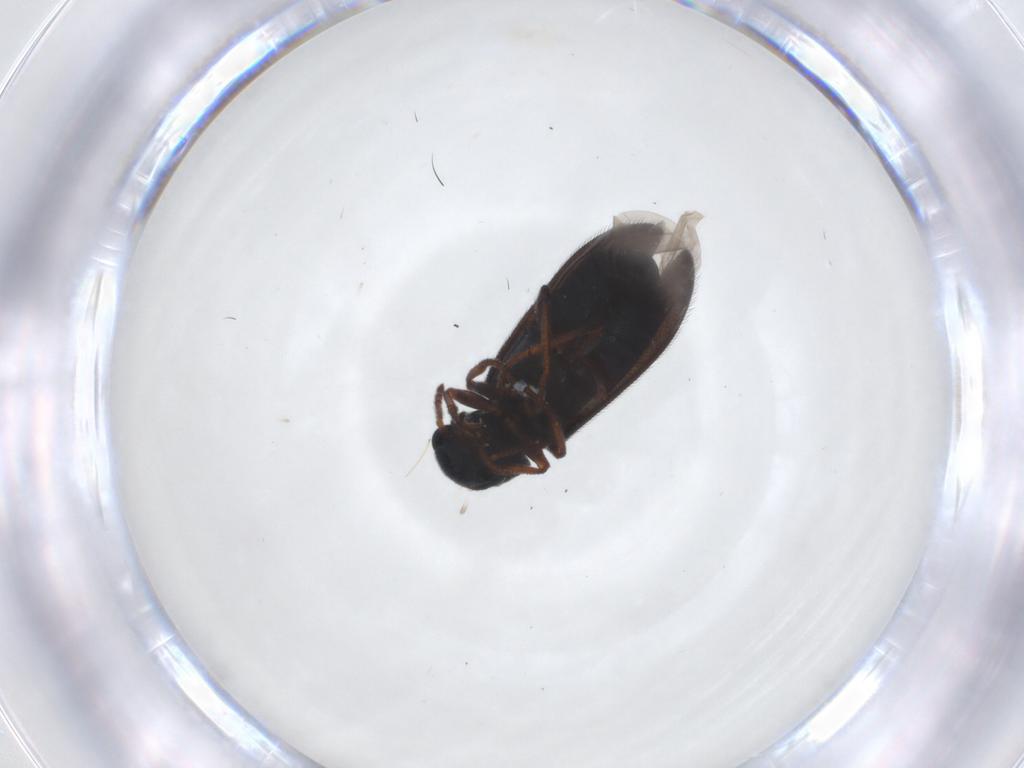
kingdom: Animalia
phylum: Arthropoda
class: Insecta
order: Coleoptera
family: Melyridae
